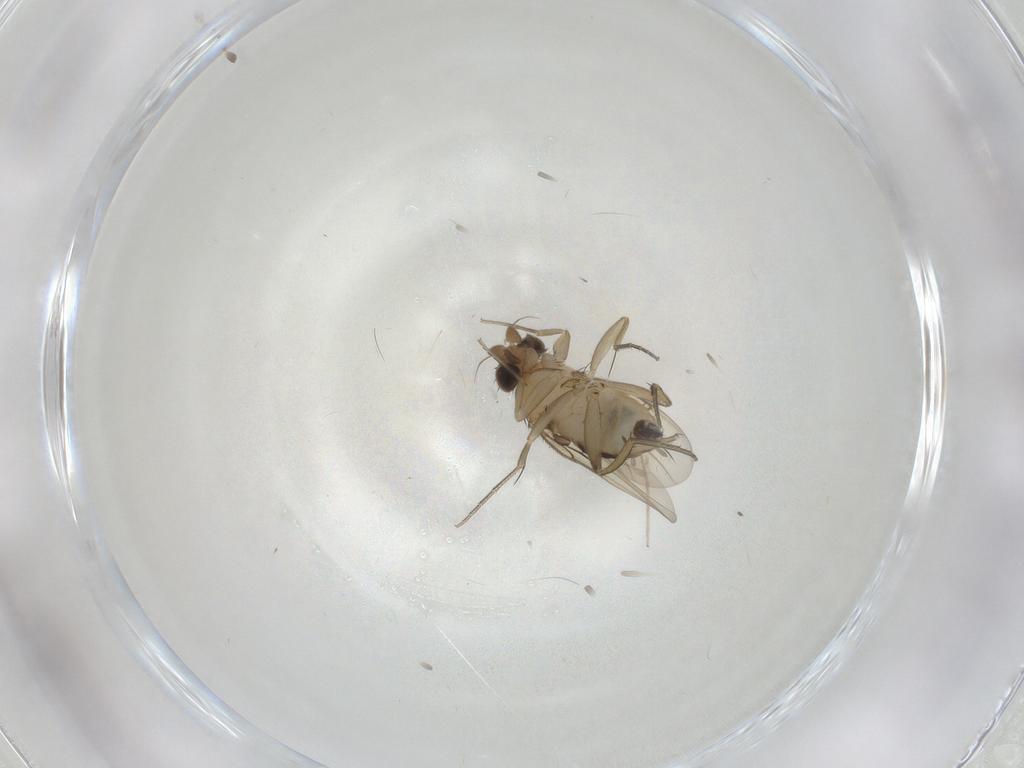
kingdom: Animalia
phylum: Arthropoda
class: Insecta
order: Diptera
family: Phoridae
